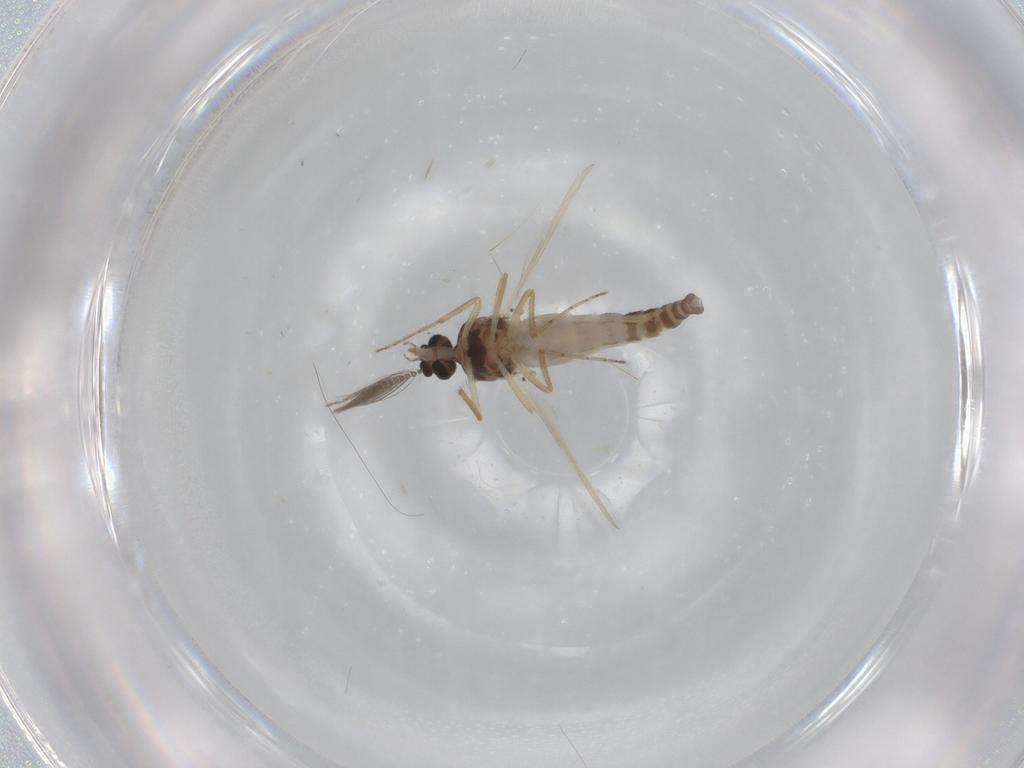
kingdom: Animalia
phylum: Arthropoda
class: Insecta
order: Diptera
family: Ceratopogonidae
